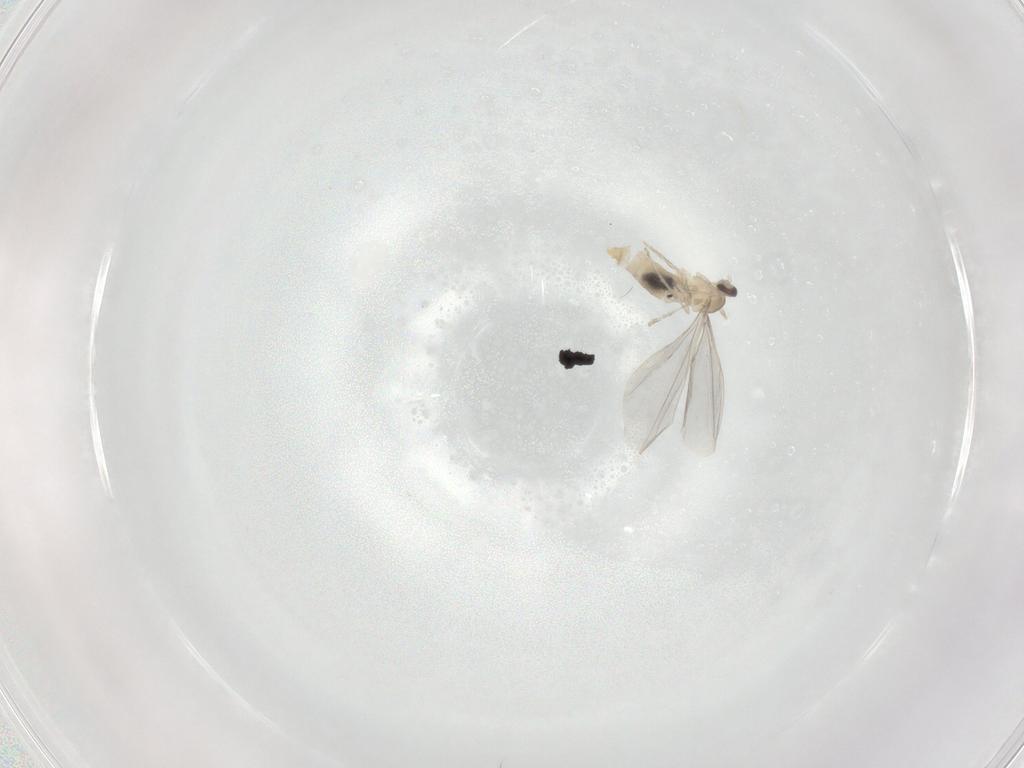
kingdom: Animalia
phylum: Arthropoda
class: Insecta
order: Diptera
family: Cecidomyiidae
